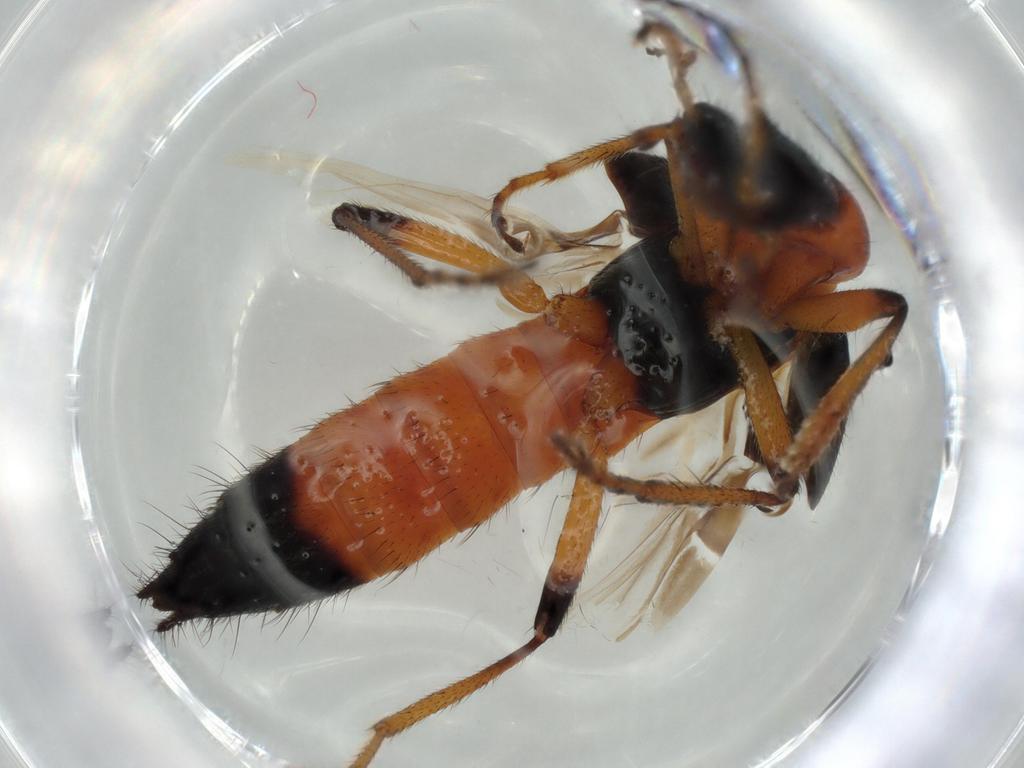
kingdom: Animalia
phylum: Arthropoda
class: Insecta
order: Coleoptera
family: Staphylinidae
